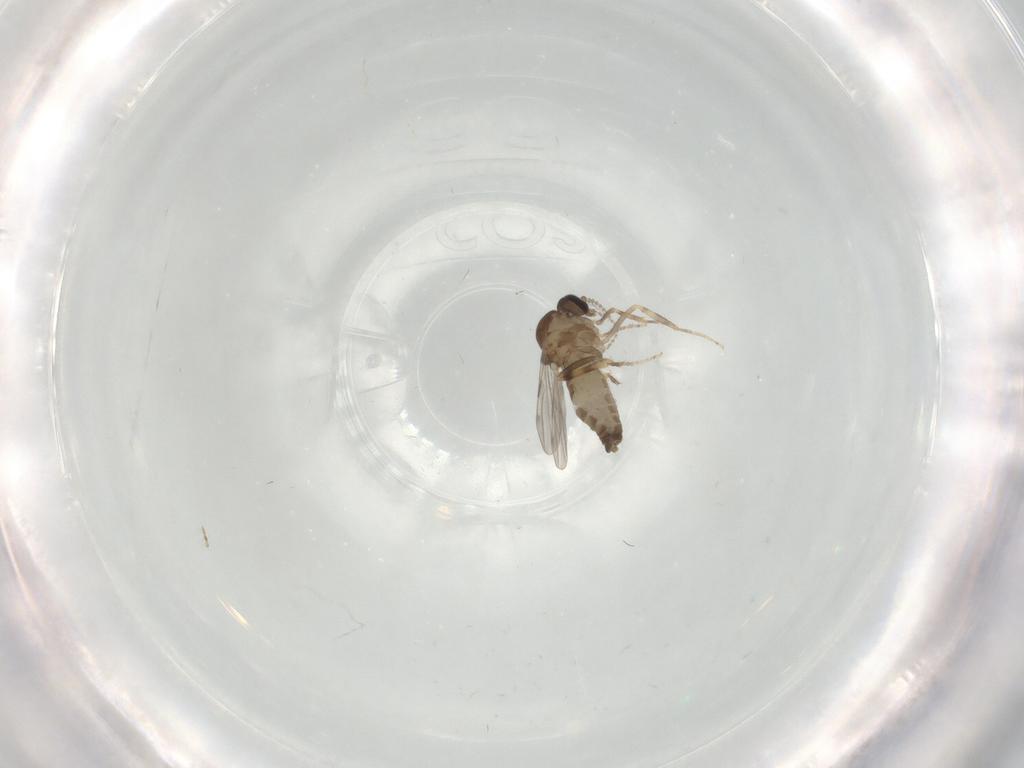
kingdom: Animalia
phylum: Arthropoda
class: Insecta
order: Diptera
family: Ceratopogonidae
